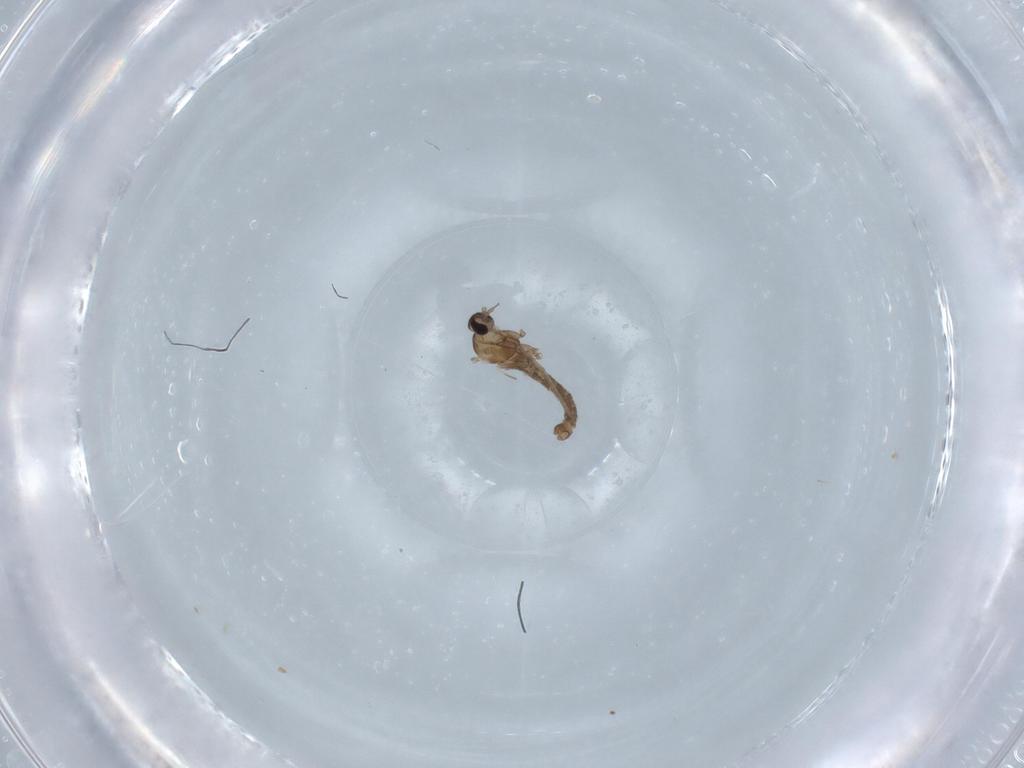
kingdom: Animalia
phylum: Arthropoda
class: Insecta
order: Diptera
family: Cecidomyiidae
